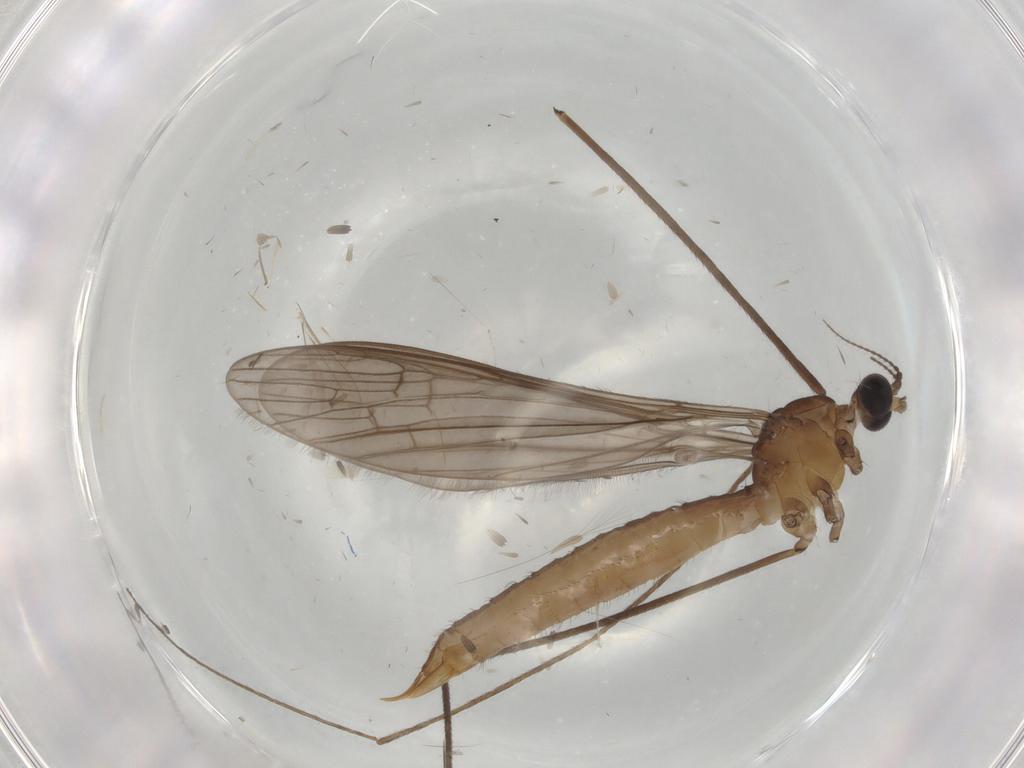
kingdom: Animalia
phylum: Arthropoda
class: Insecta
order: Diptera
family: Limoniidae
